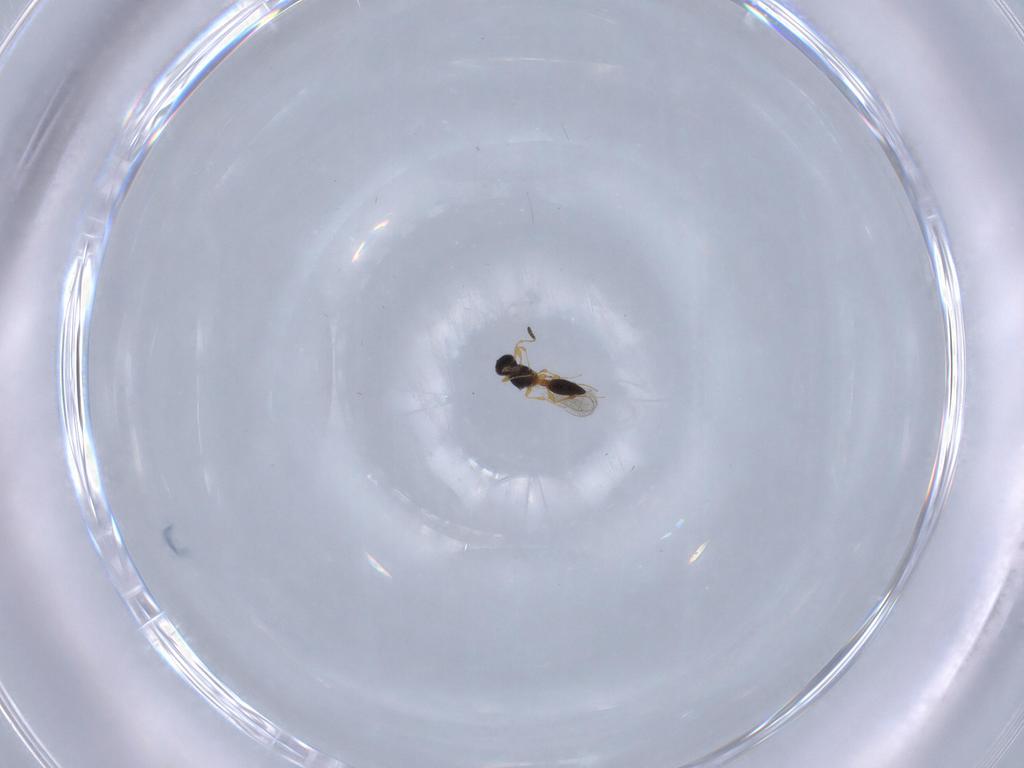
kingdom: Animalia
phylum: Arthropoda
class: Insecta
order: Hymenoptera
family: Platygastridae
